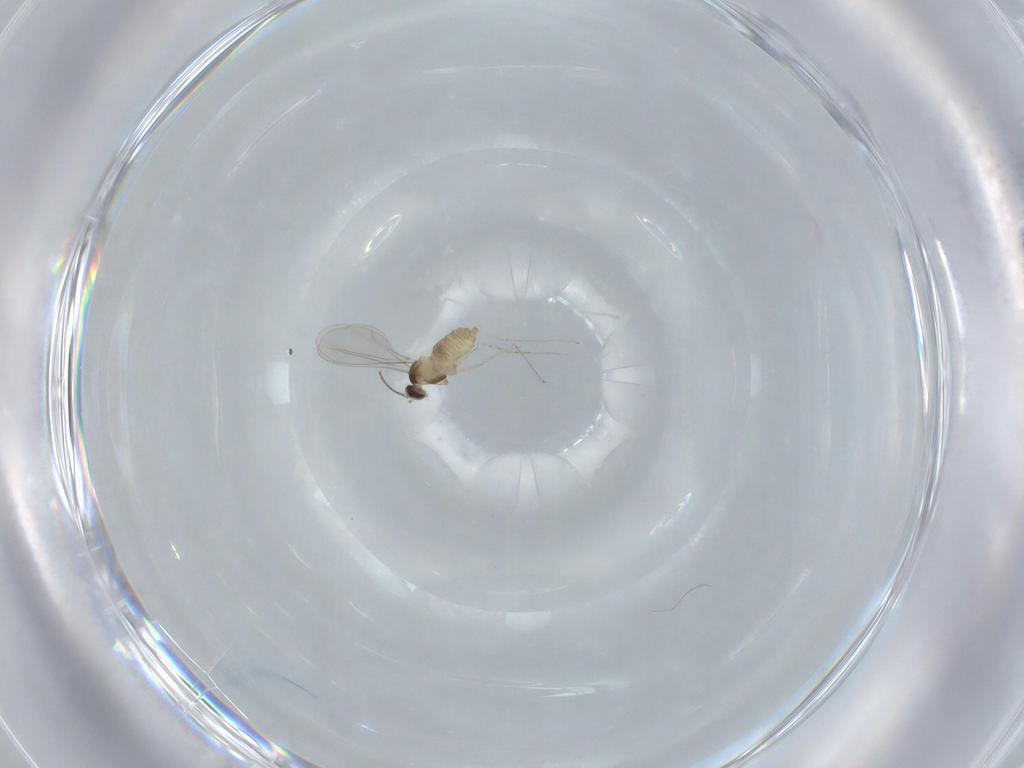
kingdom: Animalia
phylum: Arthropoda
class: Insecta
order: Diptera
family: Cecidomyiidae
